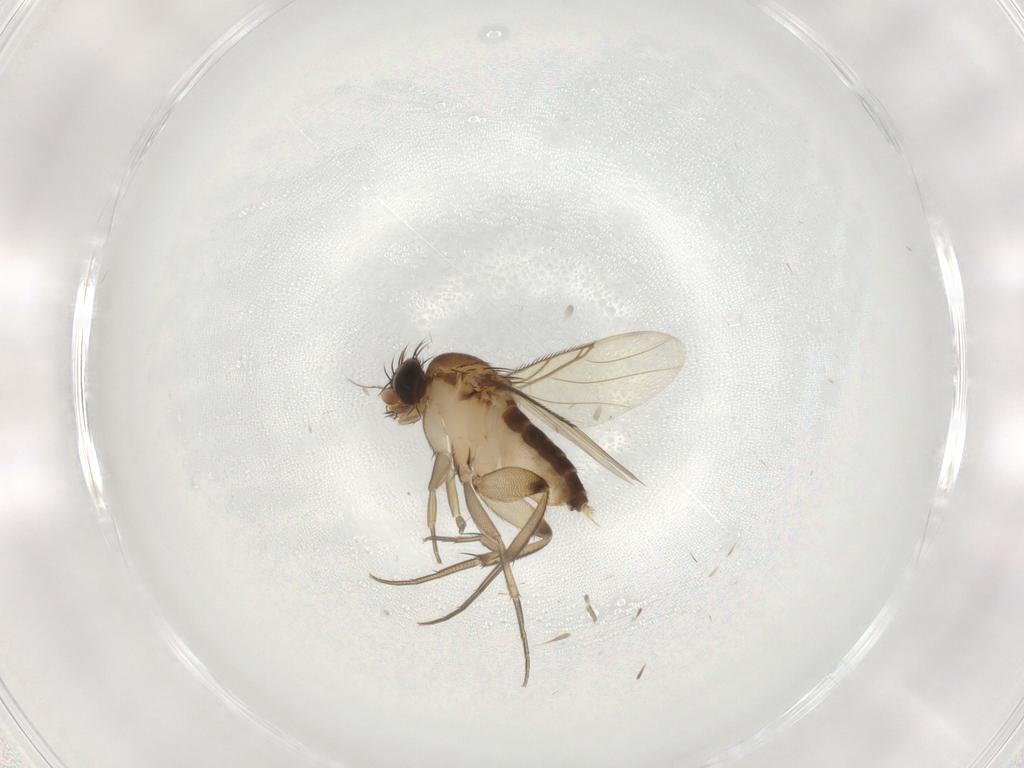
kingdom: Animalia
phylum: Arthropoda
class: Insecta
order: Diptera
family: Phoridae
